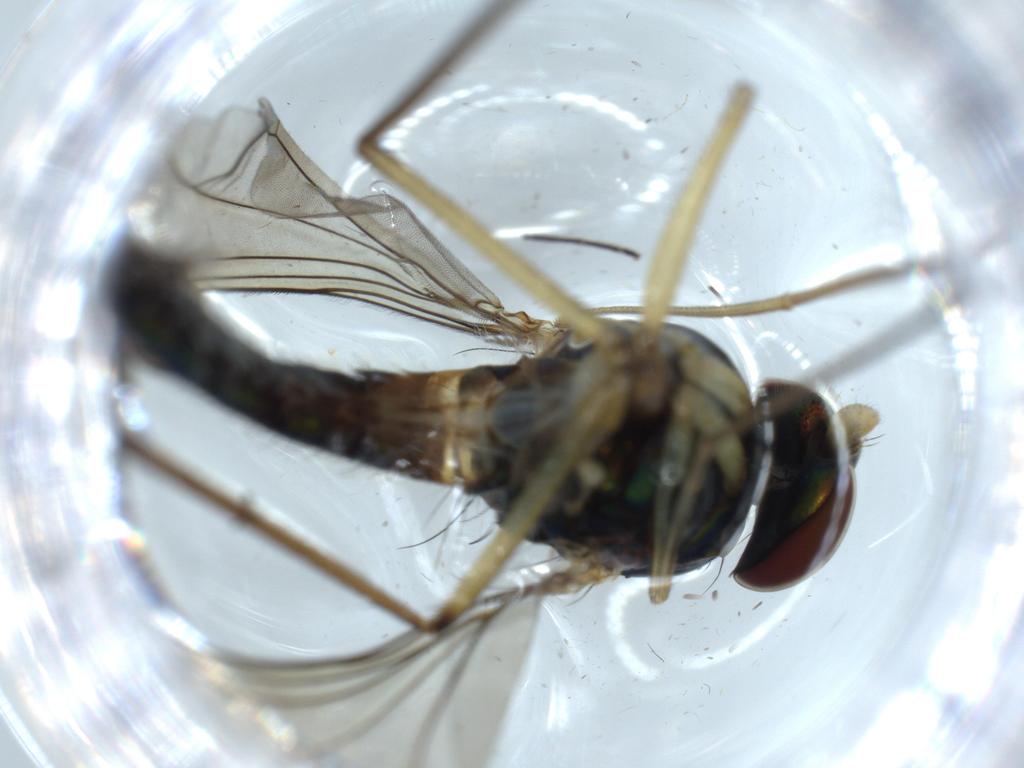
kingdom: Animalia
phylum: Arthropoda
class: Insecta
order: Diptera
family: Dolichopodidae
